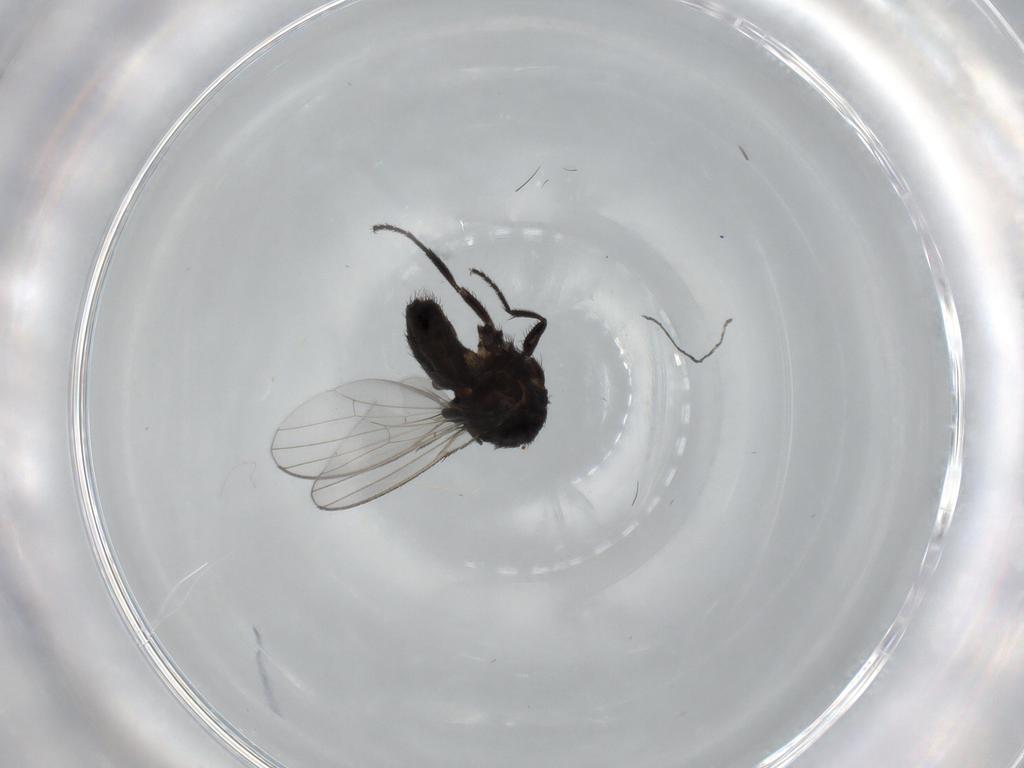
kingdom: Animalia
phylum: Arthropoda
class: Insecta
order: Diptera
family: Milichiidae
